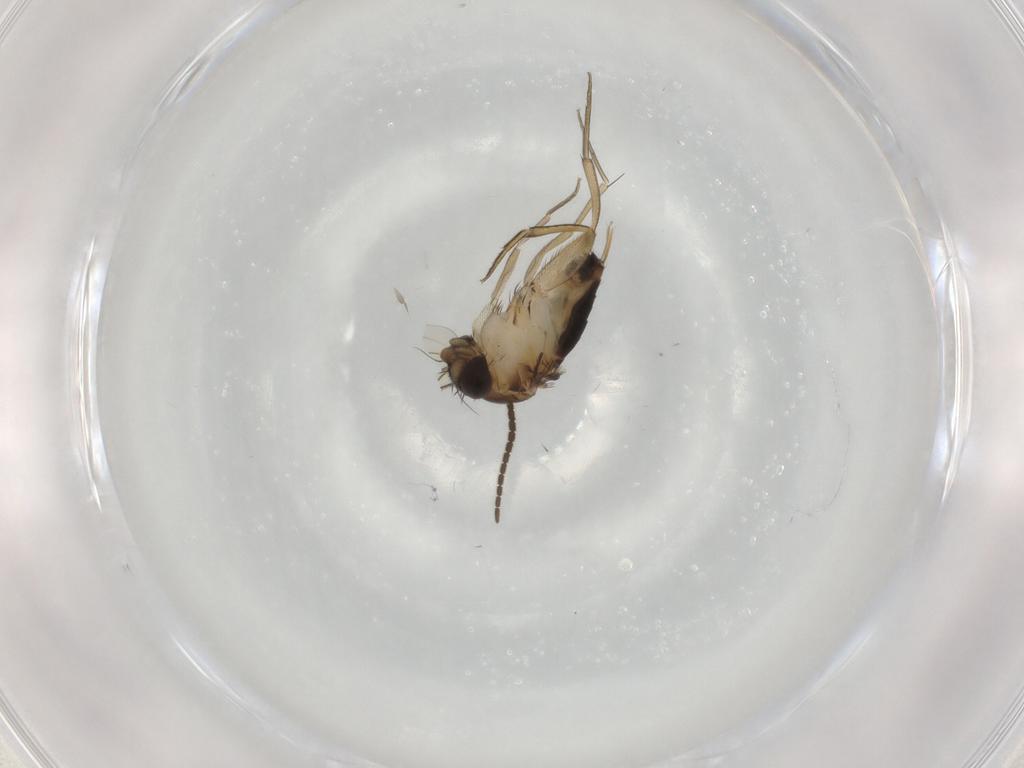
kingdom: Animalia
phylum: Arthropoda
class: Insecta
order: Diptera
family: Phoridae
